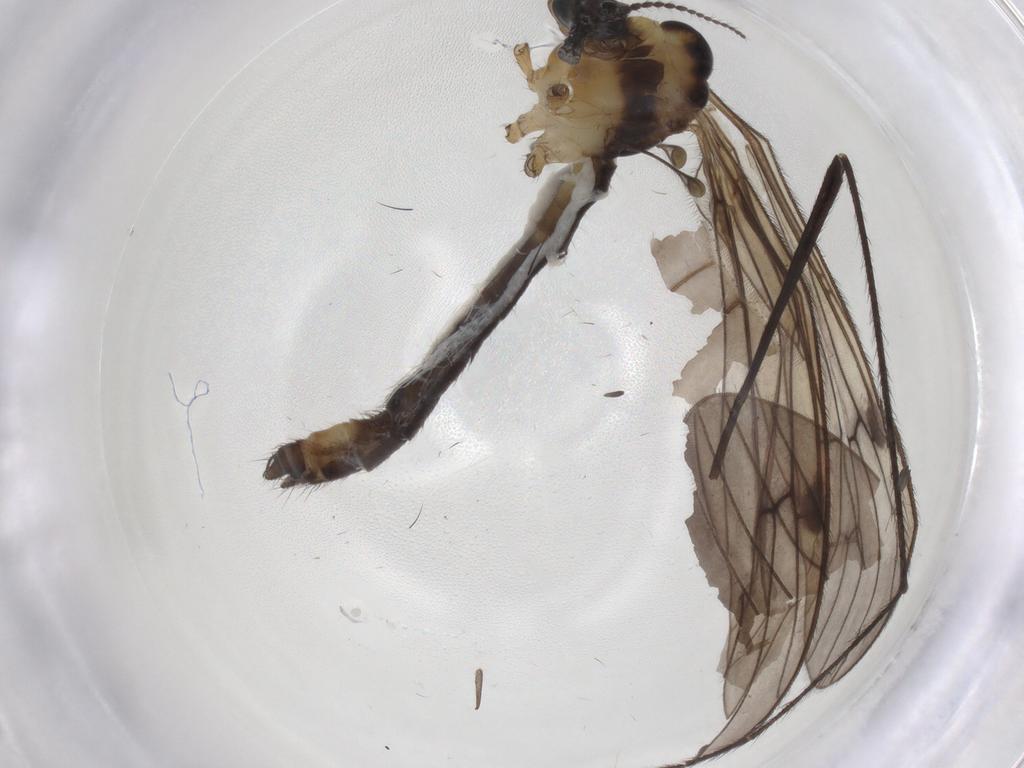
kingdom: Animalia
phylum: Arthropoda
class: Insecta
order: Diptera
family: Limoniidae
